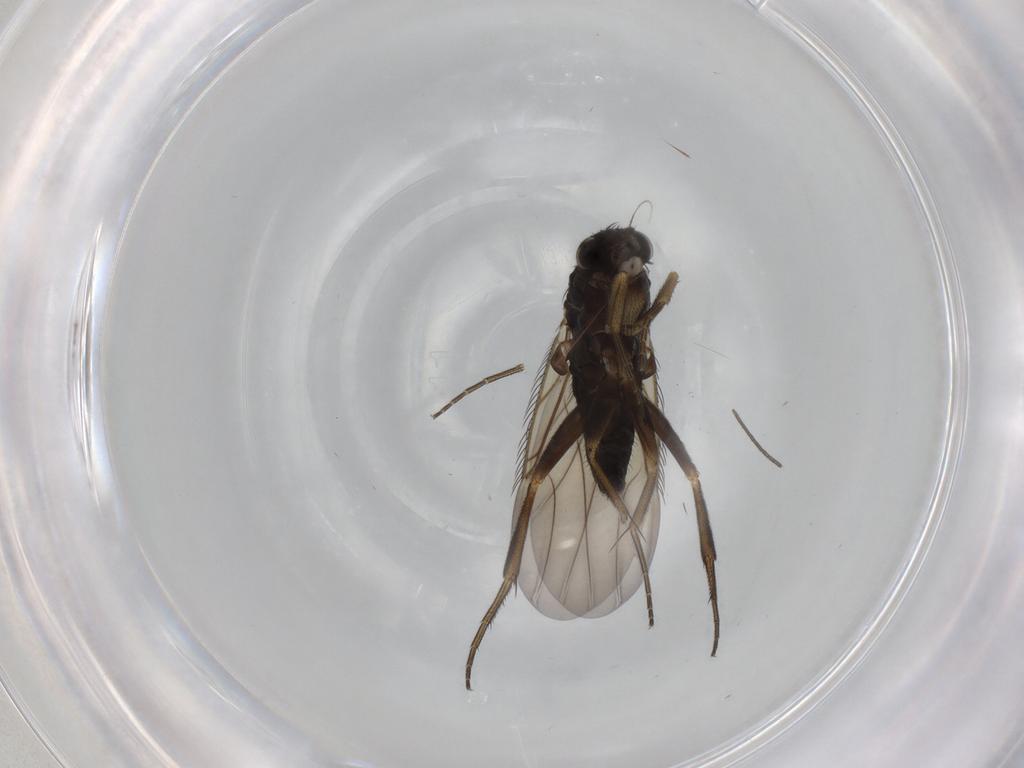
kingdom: Animalia
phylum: Arthropoda
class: Insecta
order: Diptera
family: Phoridae
